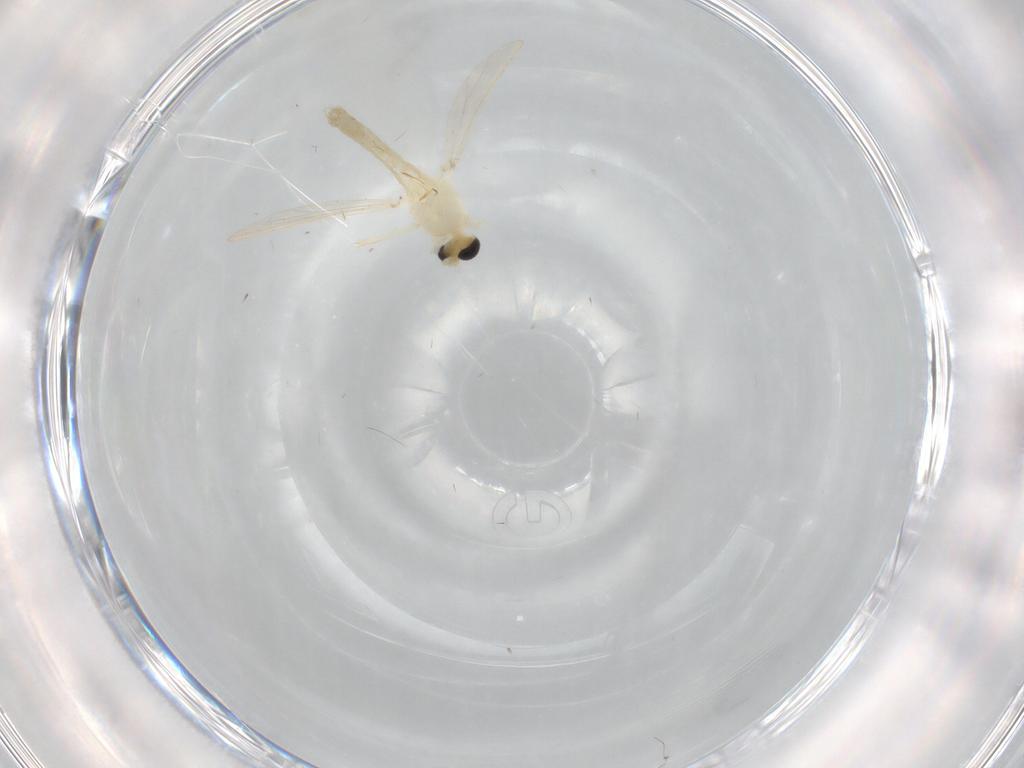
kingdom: Animalia
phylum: Arthropoda
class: Insecta
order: Diptera
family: Chironomidae
